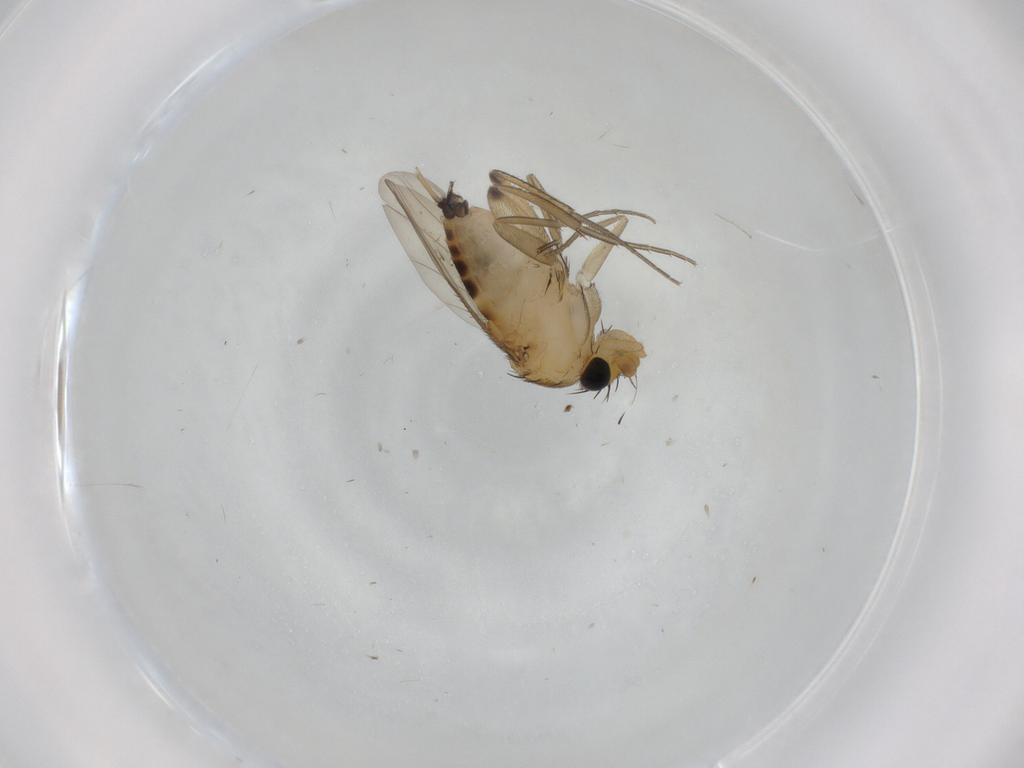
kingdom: Animalia
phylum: Arthropoda
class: Insecta
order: Diptera
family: Phoridae
